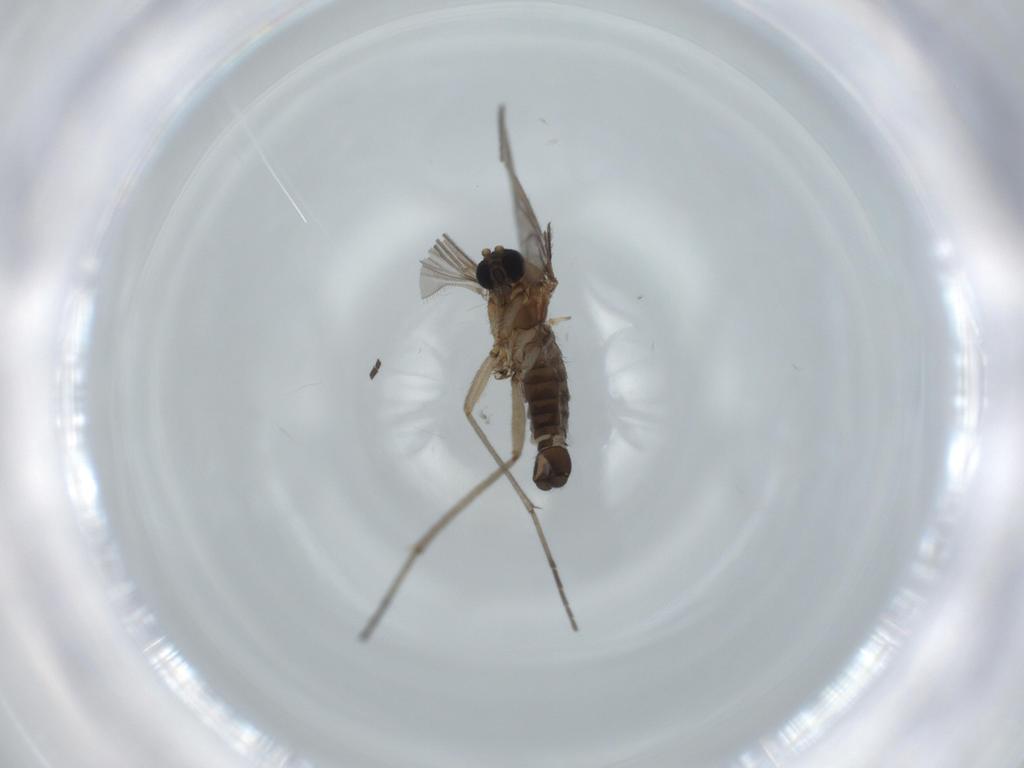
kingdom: Animalia
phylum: Arthropoda
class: Insecta
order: Diptera
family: Sciaridae
